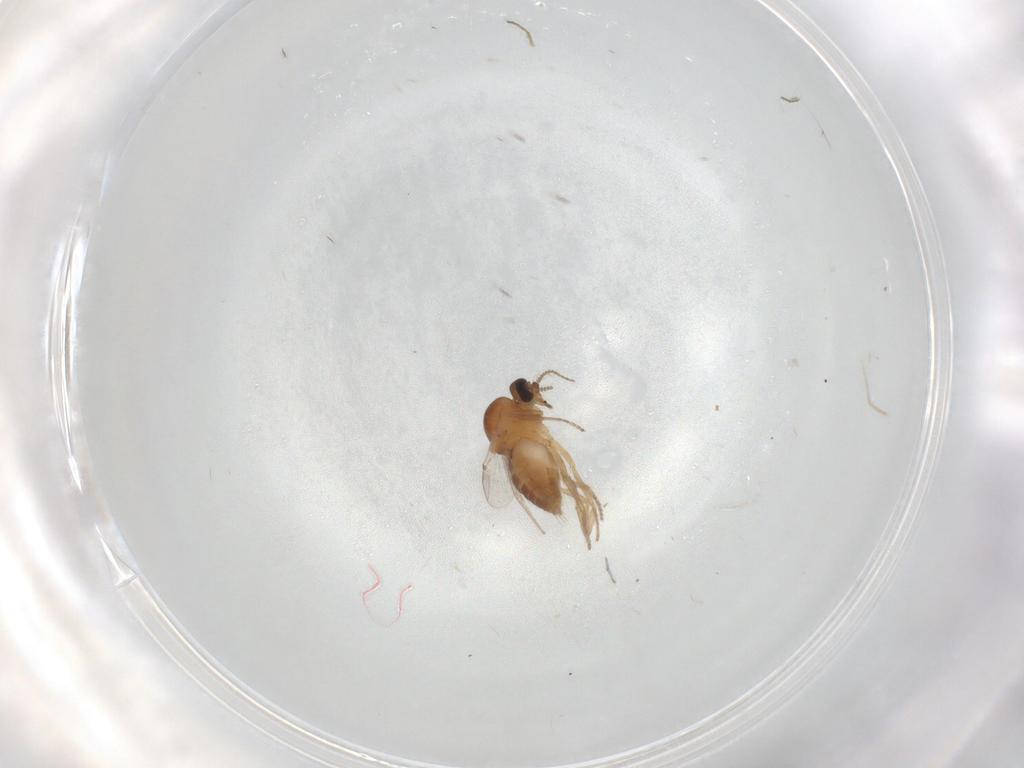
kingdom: Animalia
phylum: Arthropoda
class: Insecta
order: Diptera
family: Ceratopogonidae
